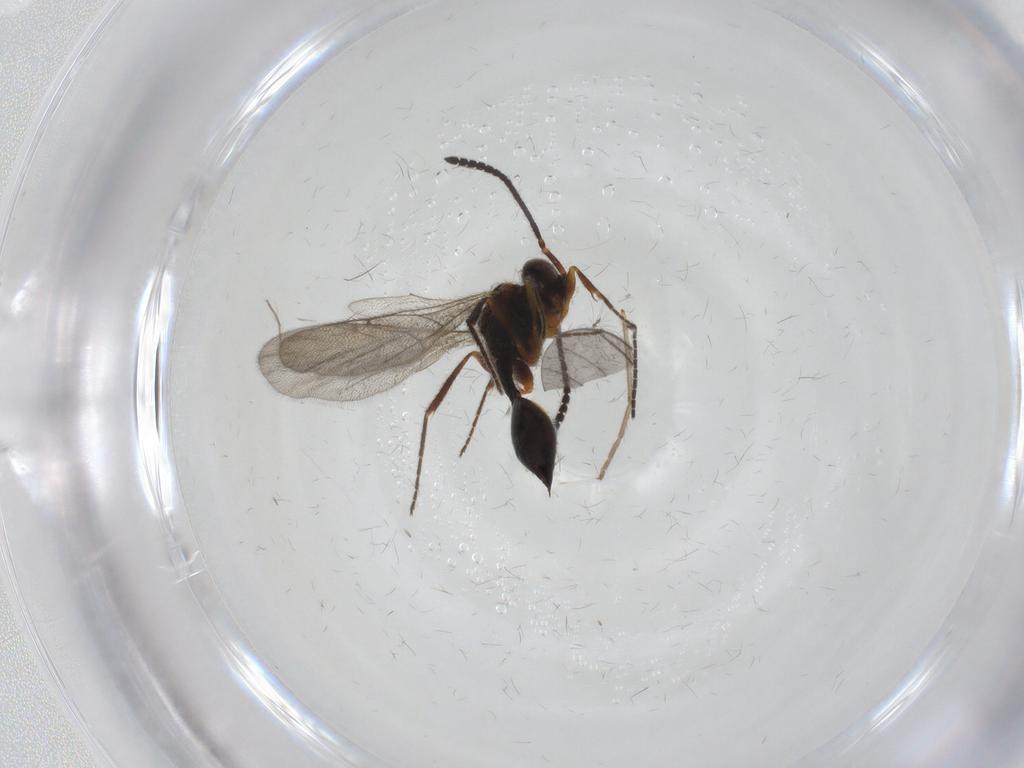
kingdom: Animalia
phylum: Arthropoda
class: Insecta
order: Hymenoptera
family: Diapriidae
